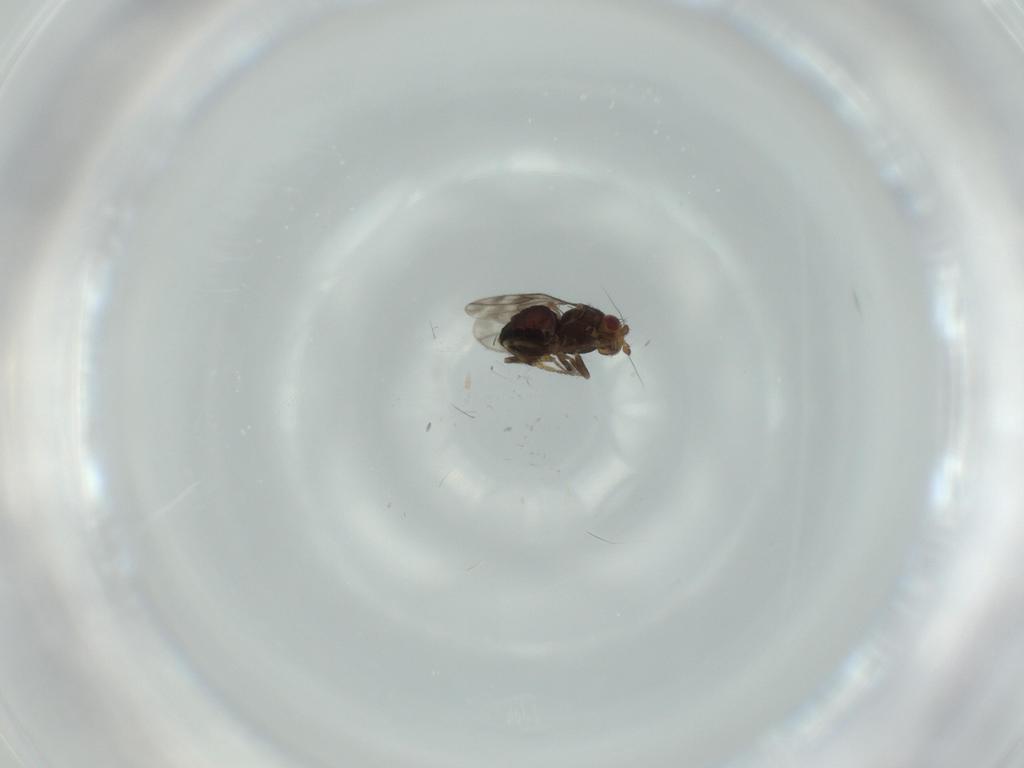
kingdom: Animalia
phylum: Arthropoda
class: Insecta
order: Diptera
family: Sphaeroceridae
